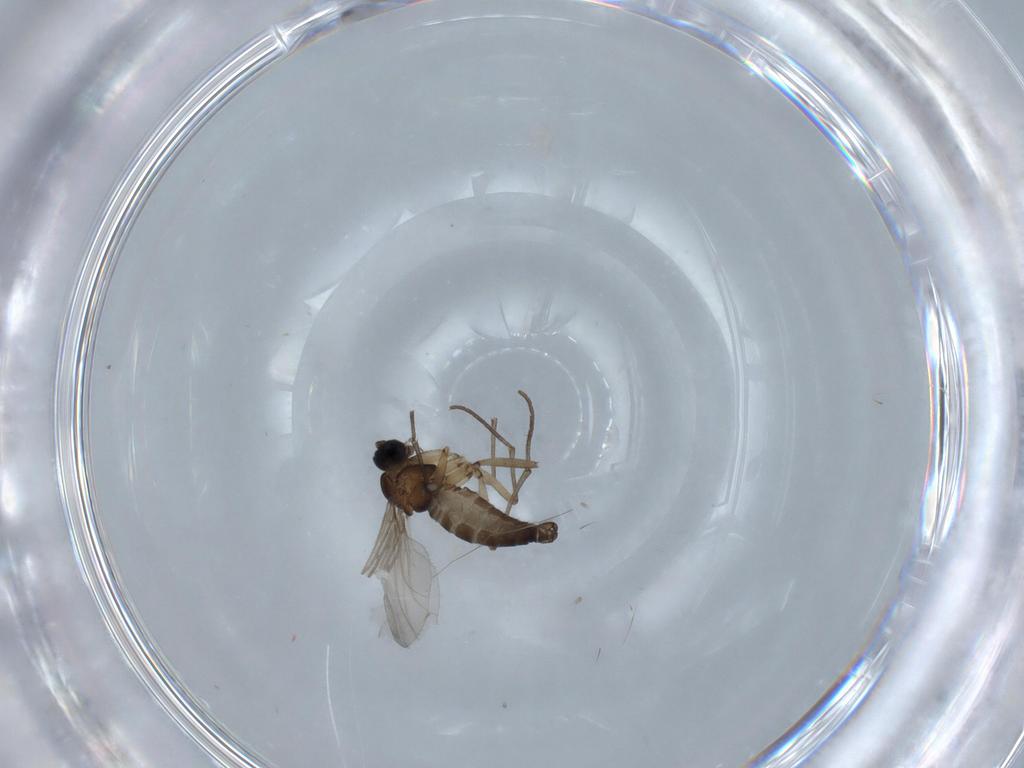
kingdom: Animalia
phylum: Arthropoda
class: Insecta
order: Diptera
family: Sciaridae
